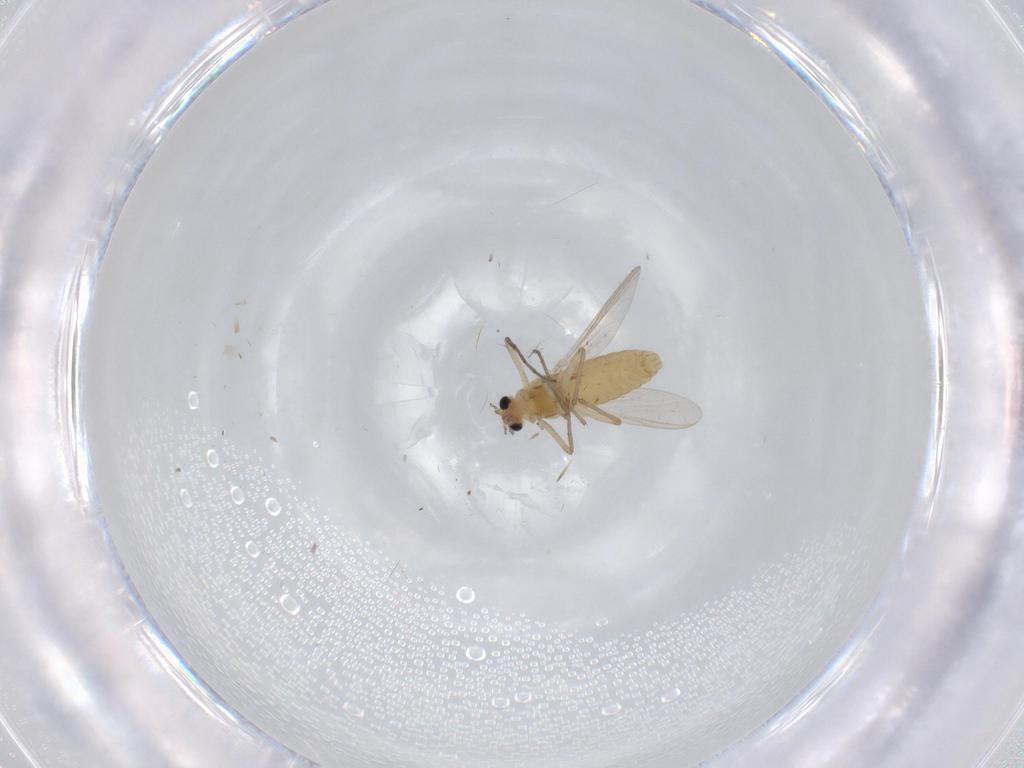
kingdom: Animalia
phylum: Arthropoda
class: Insecta
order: Diptera
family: Cecidomyiidae
